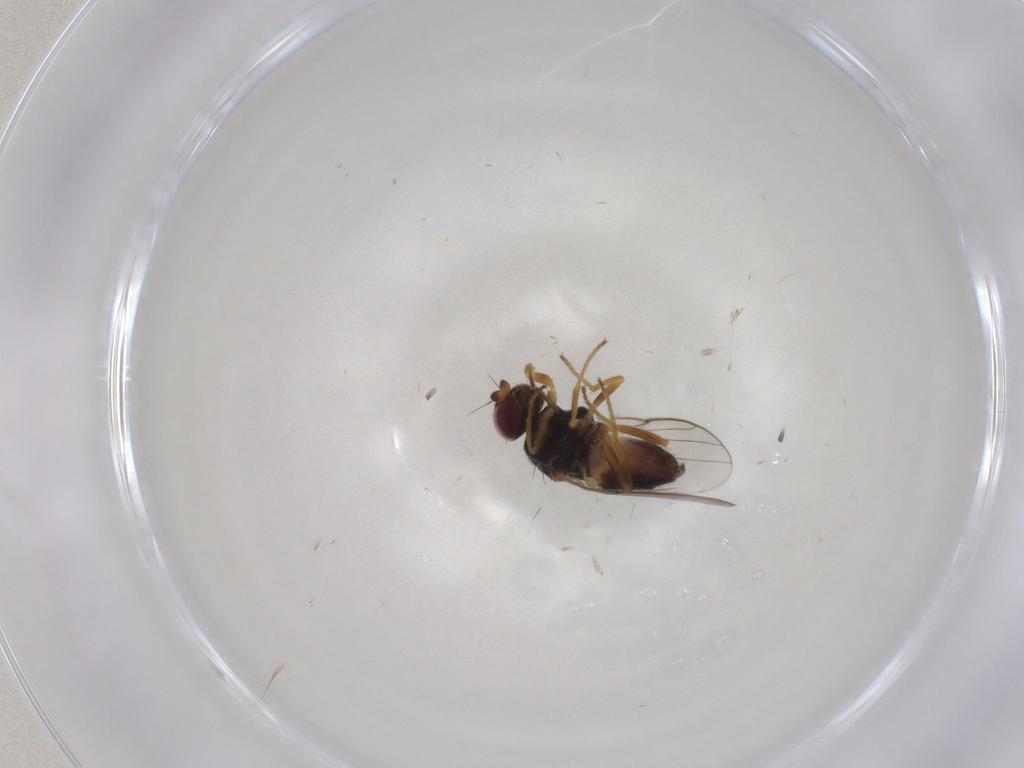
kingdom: Animalia
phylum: Arthropoda
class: Insecta
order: Diptera
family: Chloropidae
